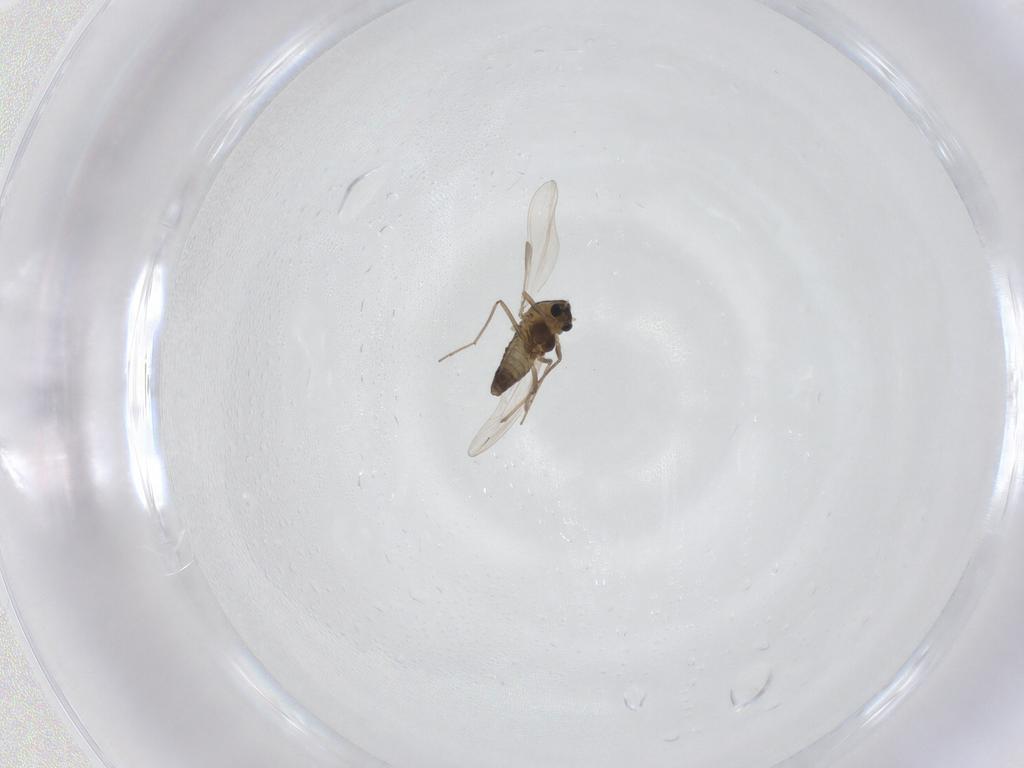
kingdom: Animalia
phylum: Arthropoda
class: Insecta
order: Diptera
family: Chironomidae
